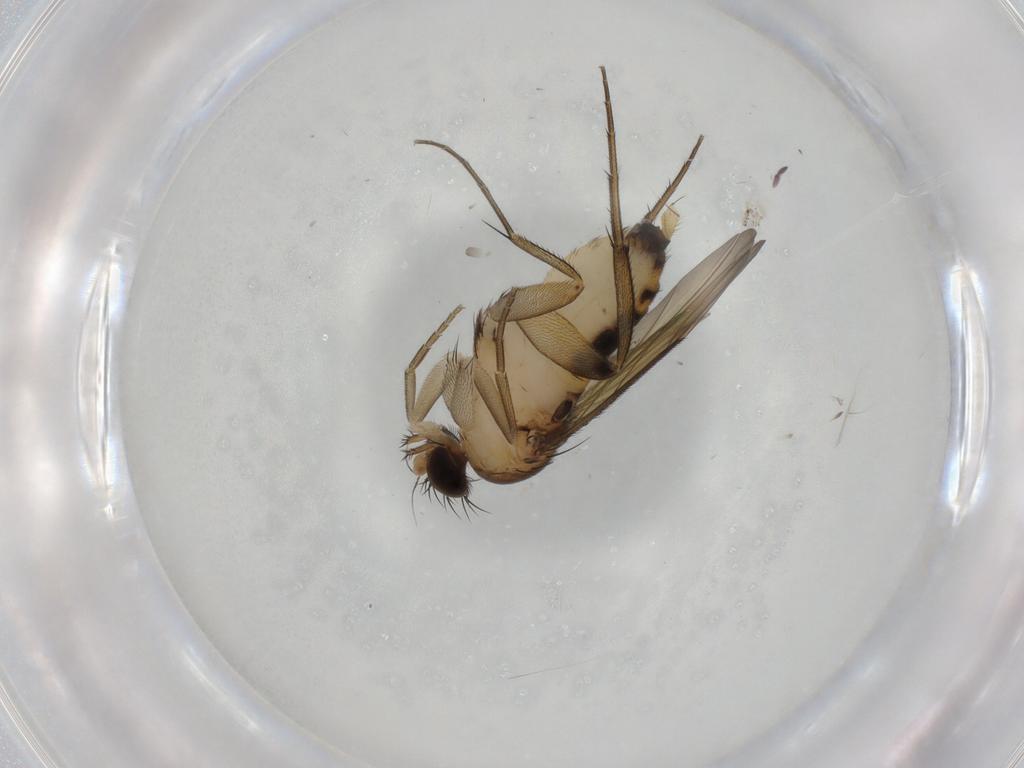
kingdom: Animalia
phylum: Arthropoda
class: Insecta
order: Diptera
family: Chironomidae
